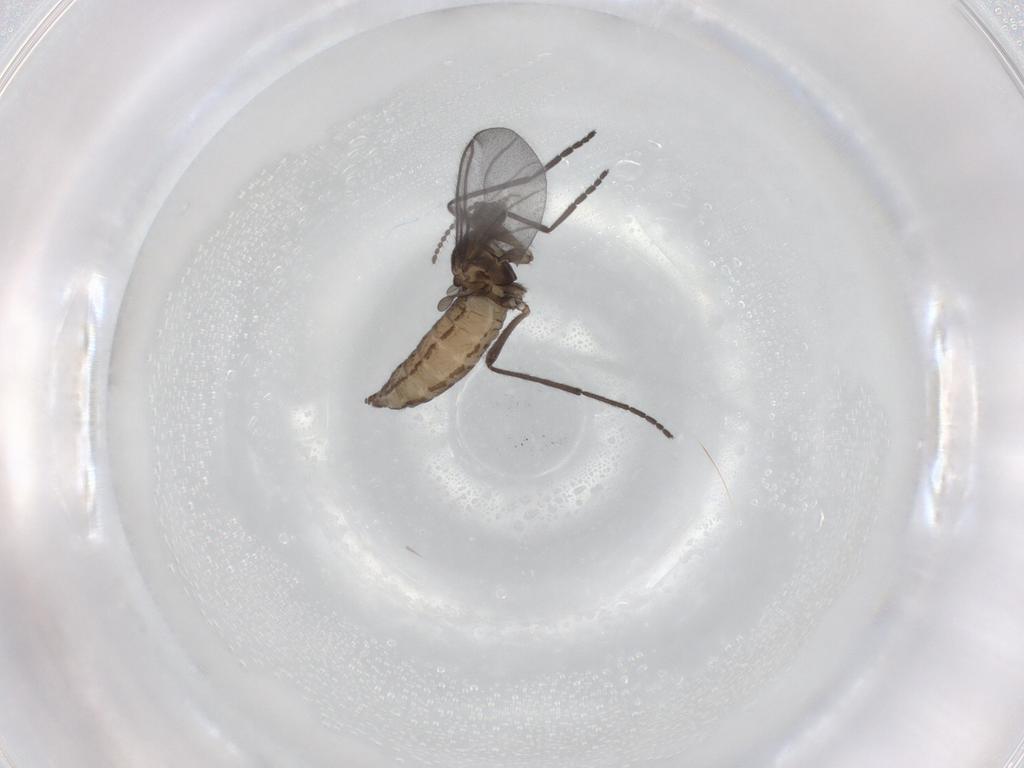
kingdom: Animalia
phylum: Arthropoda
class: Insecta
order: Diptera
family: Cecidomyiidae
